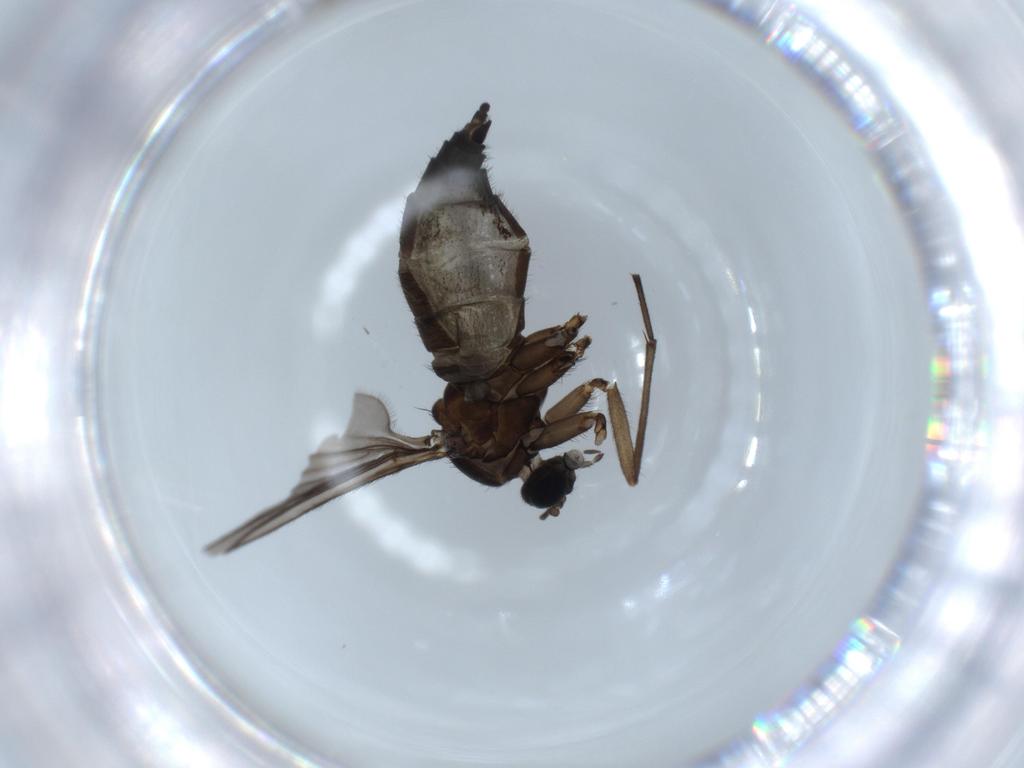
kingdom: Animalia
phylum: Arthropoda
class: Insecta
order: Diptera
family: Sciaridae
